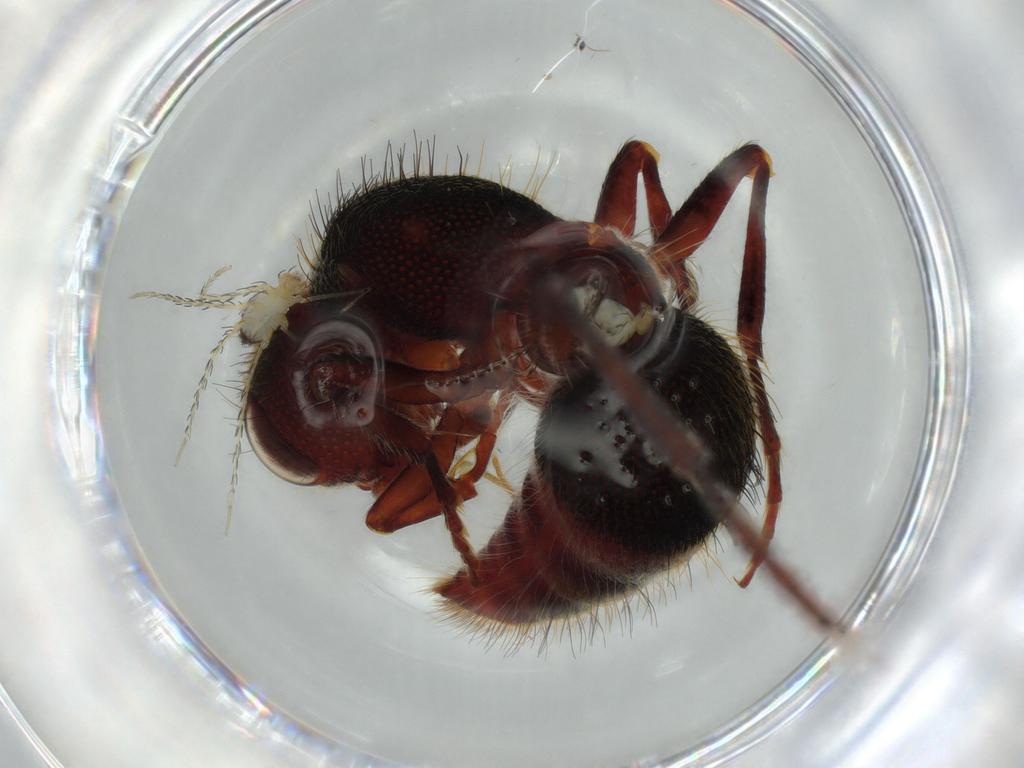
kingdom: Animalia
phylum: Arthropoda
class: Insecta
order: Hymenoptera
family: Formicidae
